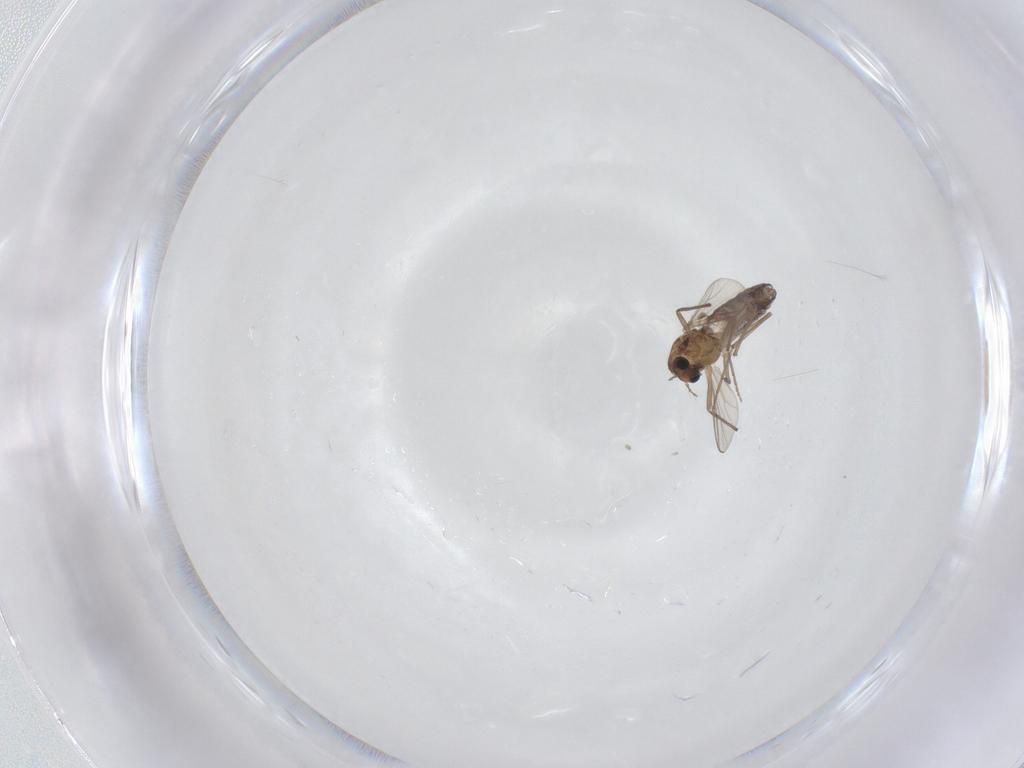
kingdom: Animalia
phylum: Arthropoda
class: Insecta
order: Diptera
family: Chironomidae
